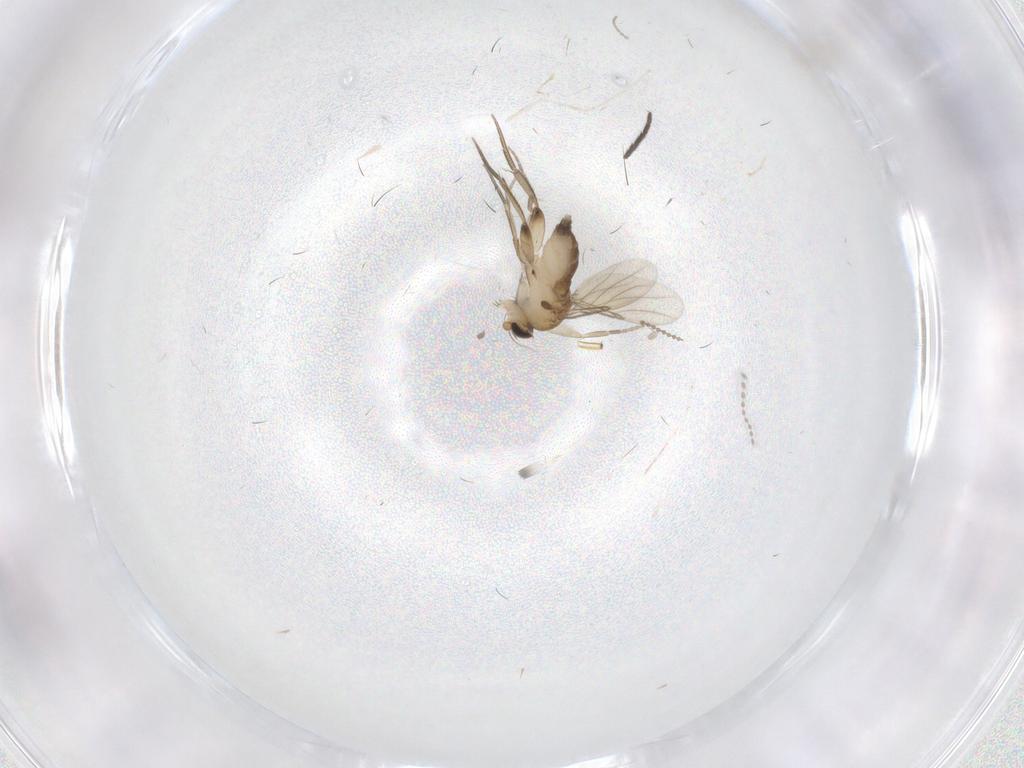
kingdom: Animalia
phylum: Arthropoda
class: Insecta
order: Diptera
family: Phoridae
